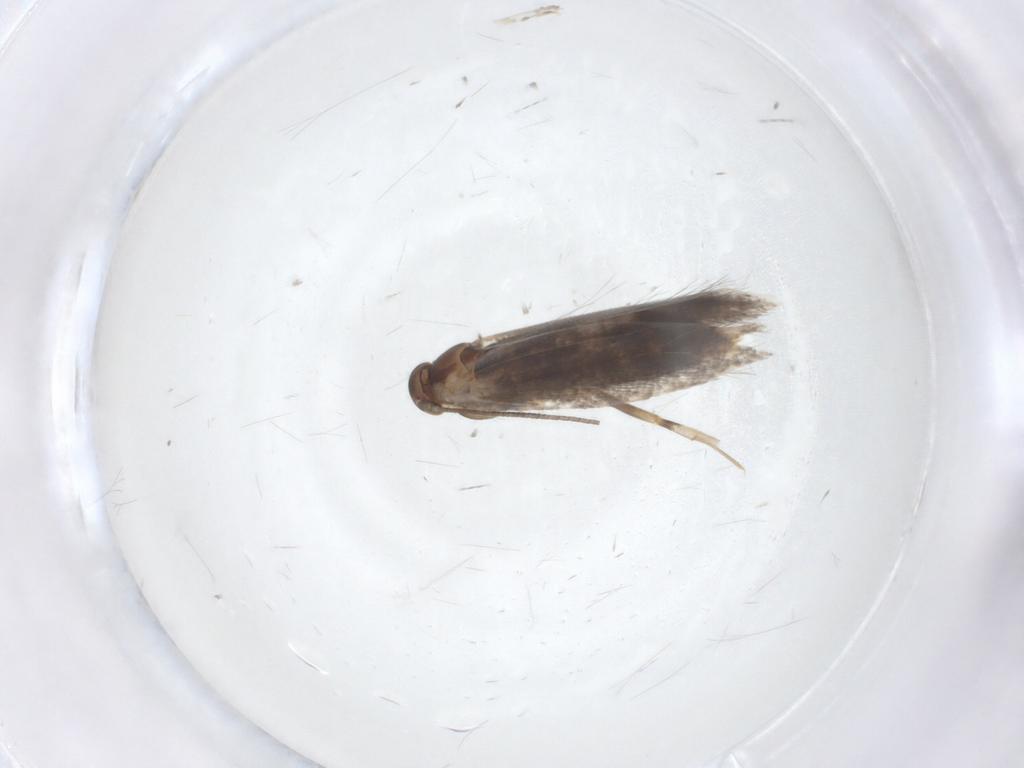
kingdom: Animalia
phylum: Arthropoda
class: Insecta
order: Lepidoptera
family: Elachistidae
